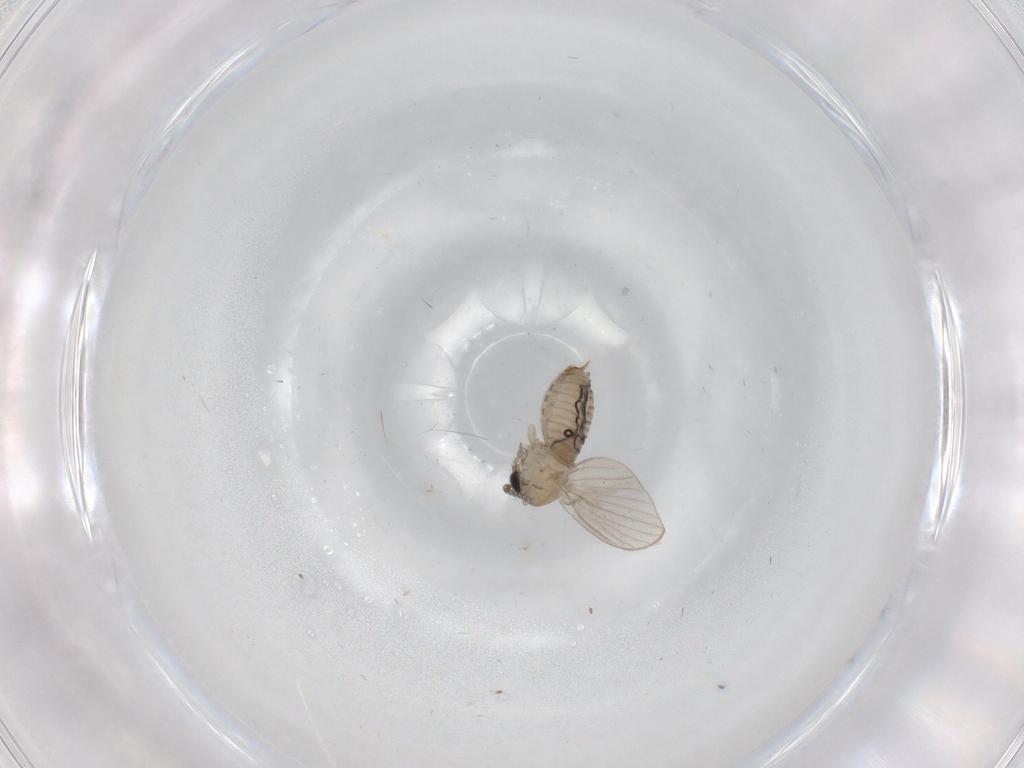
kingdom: Animalia
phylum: Arthropoda
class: Insecta
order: Diptera
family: Psychodidae
